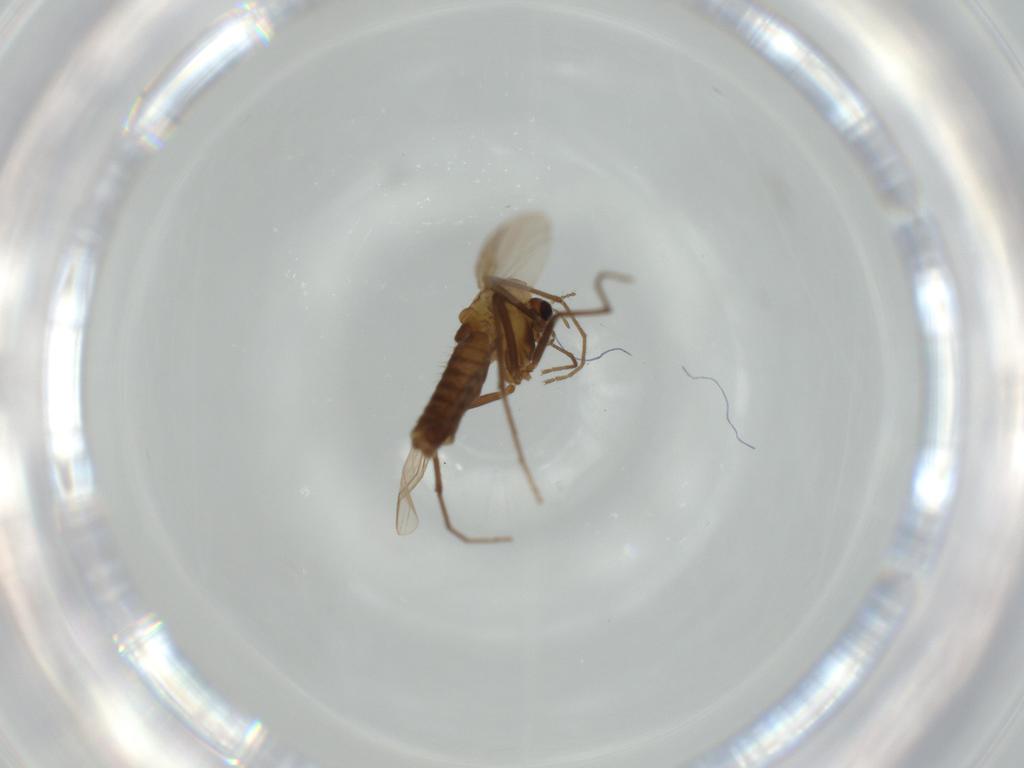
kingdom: Animalia
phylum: Arthropoda
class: Insecta
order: Diptera
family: Chironomidae
